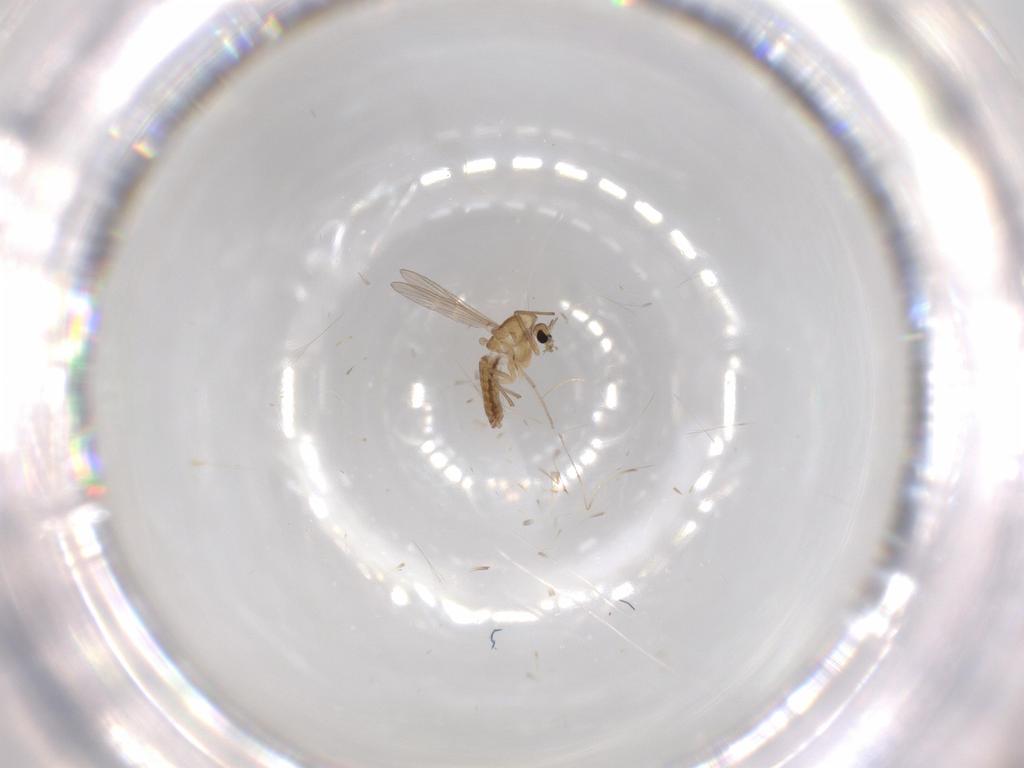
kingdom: Animalia
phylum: Arthropoda
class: Insecta
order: Diptera
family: Chironomidae
